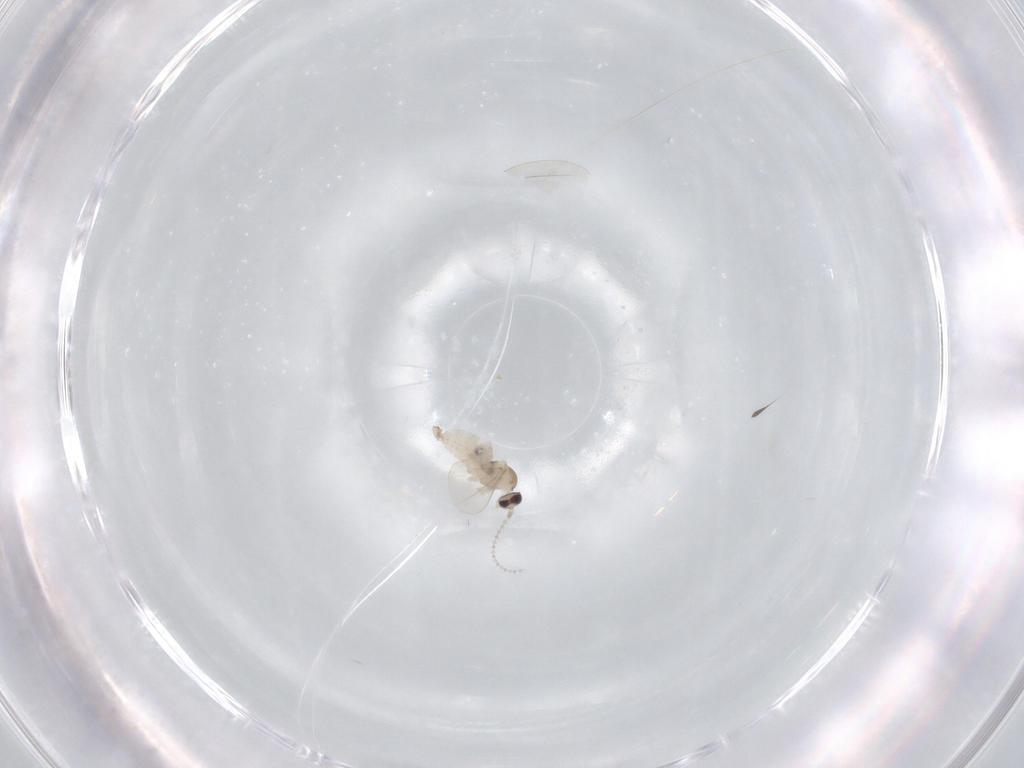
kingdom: Animalia
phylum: Arthropoda
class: Insecta
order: Diptera
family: Cecidomyiidae
